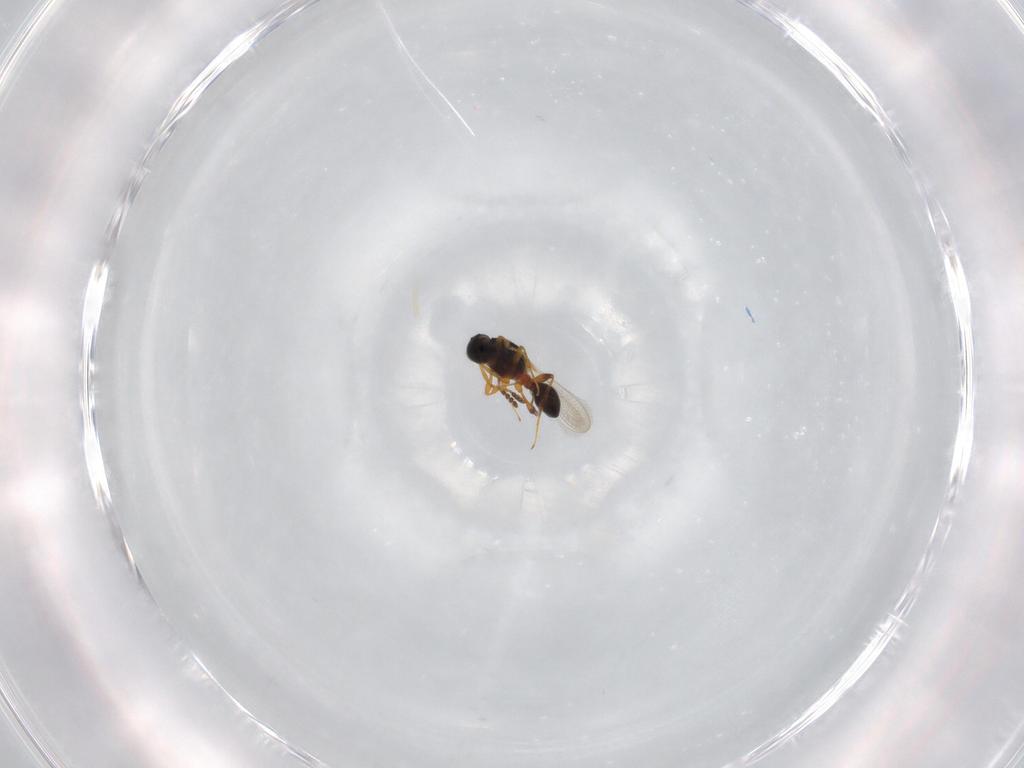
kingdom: Animalia
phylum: Arthropoda
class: Insecta
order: Hymenoptera
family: Platygastridae
